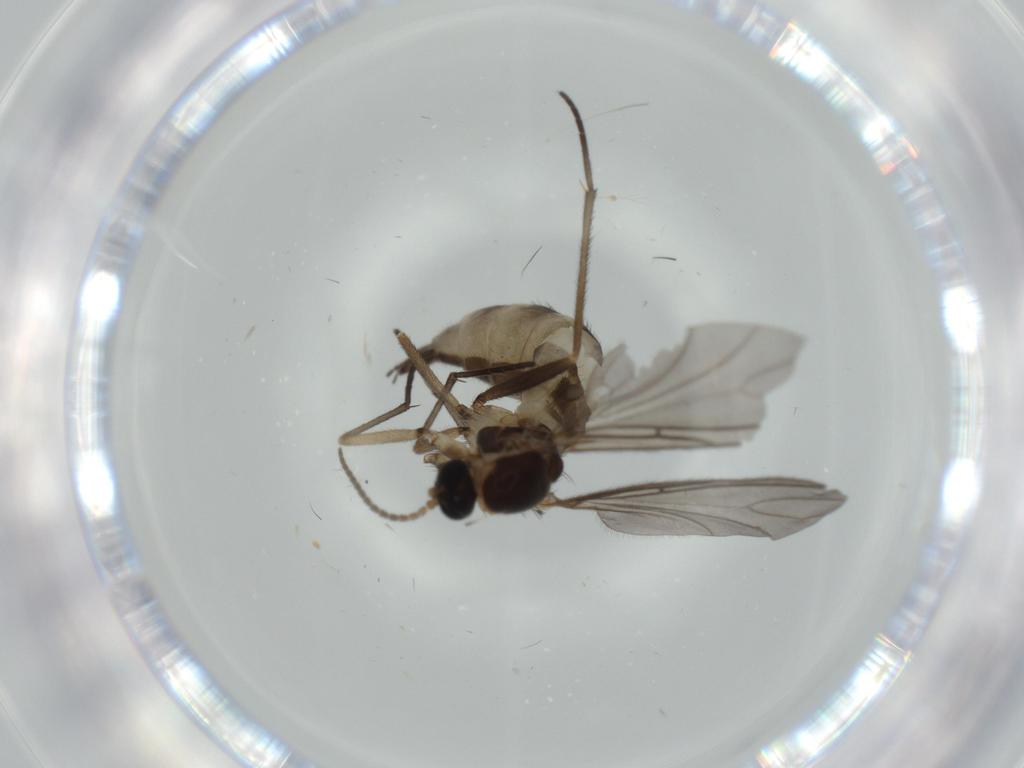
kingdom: Animalia
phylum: Arthropoda
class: Insecta
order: Diptera
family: Sciaridae
